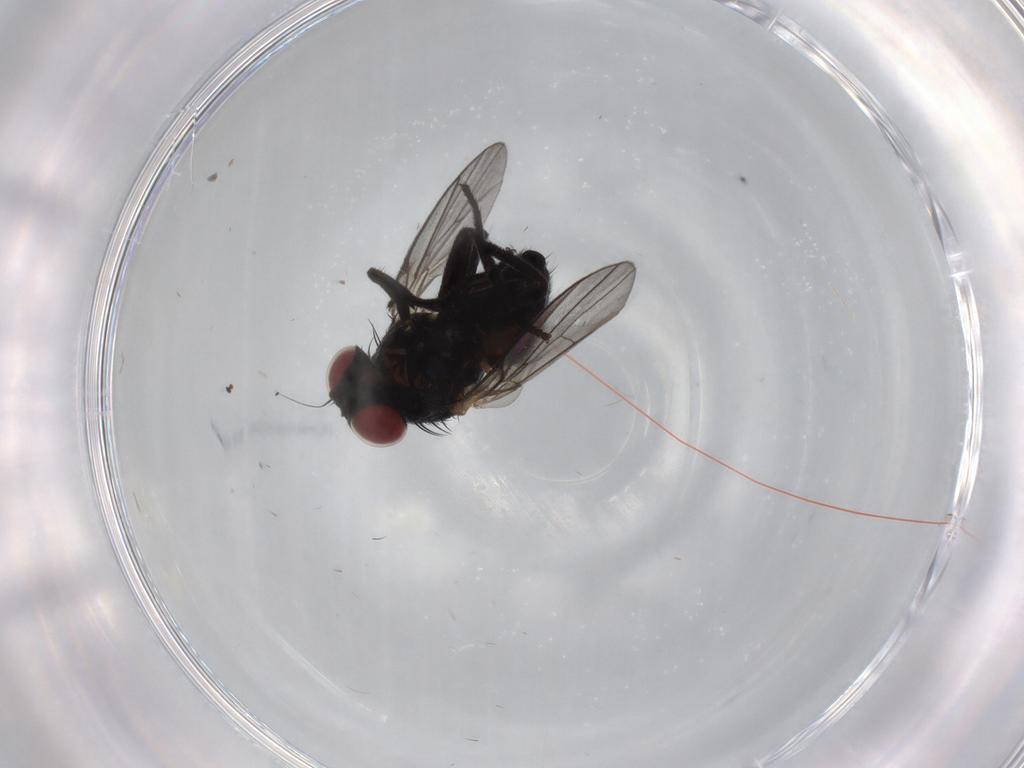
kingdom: Animalia
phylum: Arthropoda
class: Insecta
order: Diptera
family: Agromyzidae
